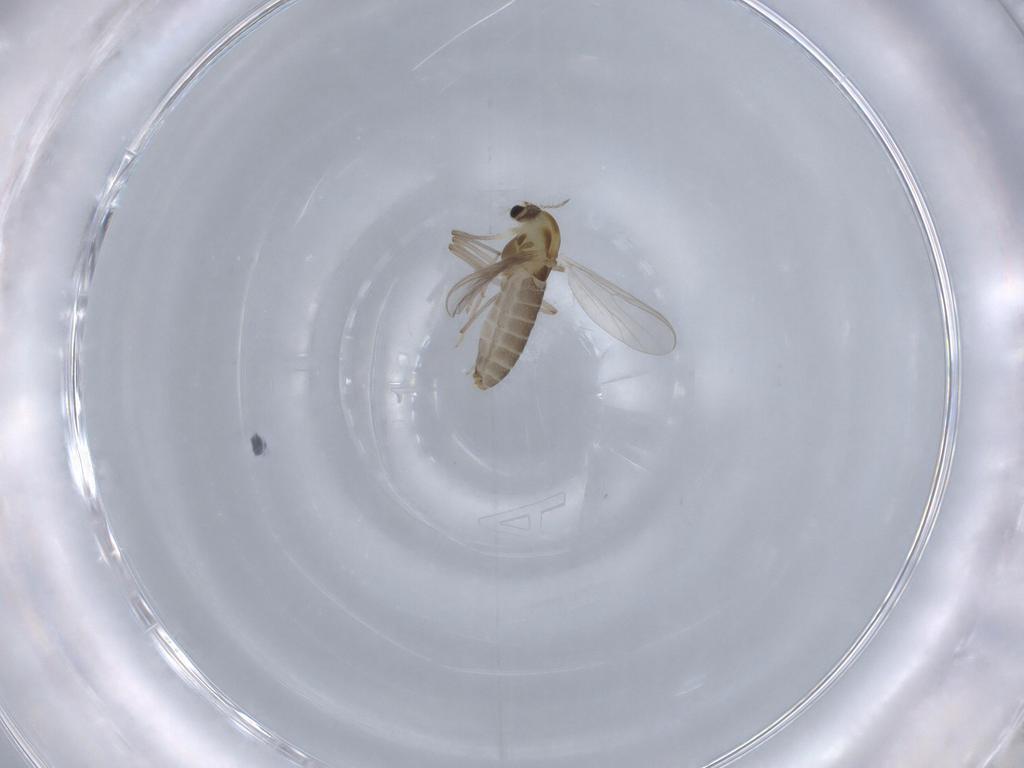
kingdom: Animalia
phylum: Arthropoda
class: Insecta
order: Diptera
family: Chironomidae
